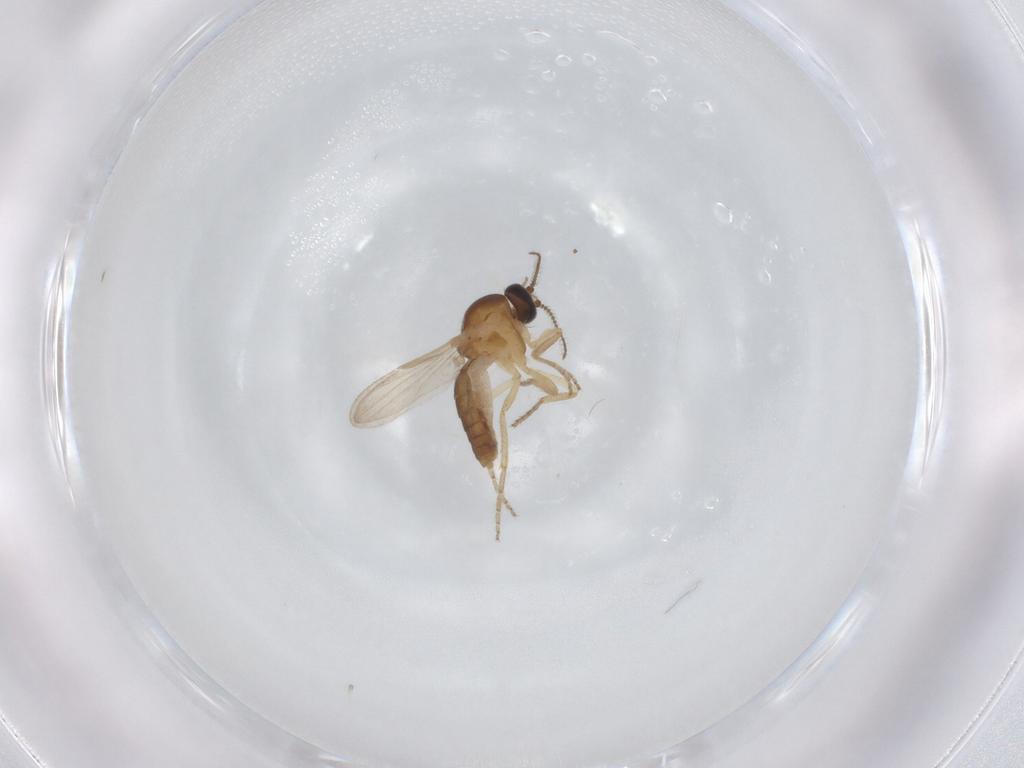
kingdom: Animalia
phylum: Arthropoda
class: Insecta
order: Diptera
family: Ceratopogonidae
